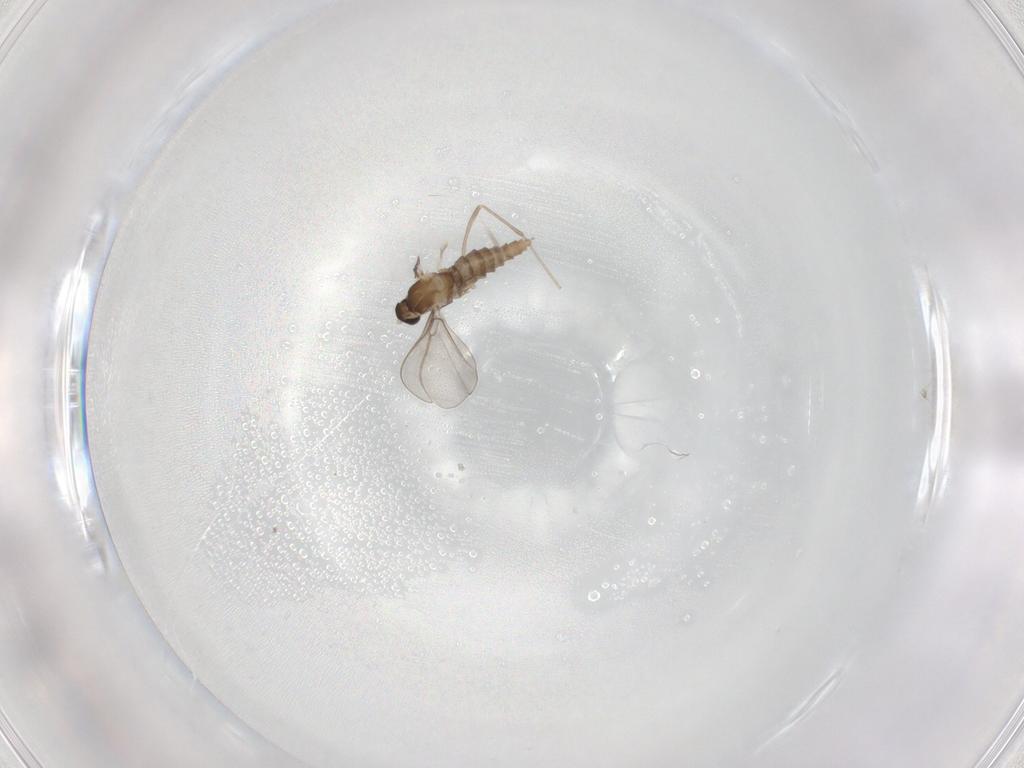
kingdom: Animalia
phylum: Arthropoda
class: Insecta
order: Diptera
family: Cecidomyiidae
